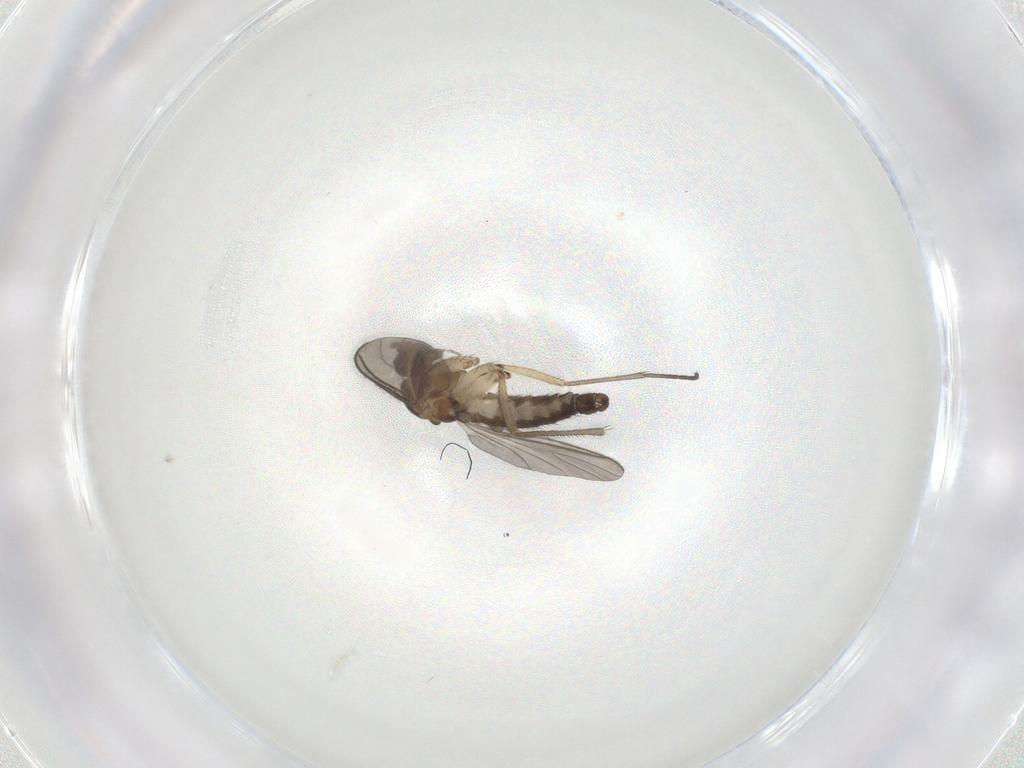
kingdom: Animalia
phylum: Arthropoda
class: Insecta
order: Diptera
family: Sciaridae
